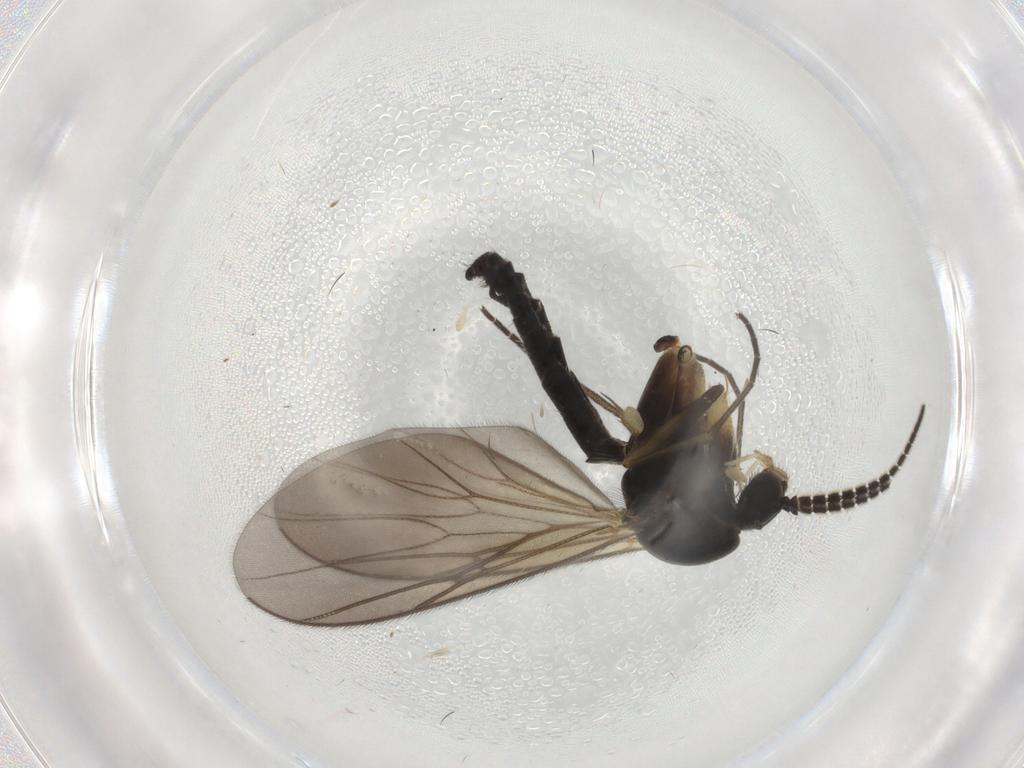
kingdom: Animalia
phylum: Arthropoda
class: Insecta
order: Diptera
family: Mycetophilidae
